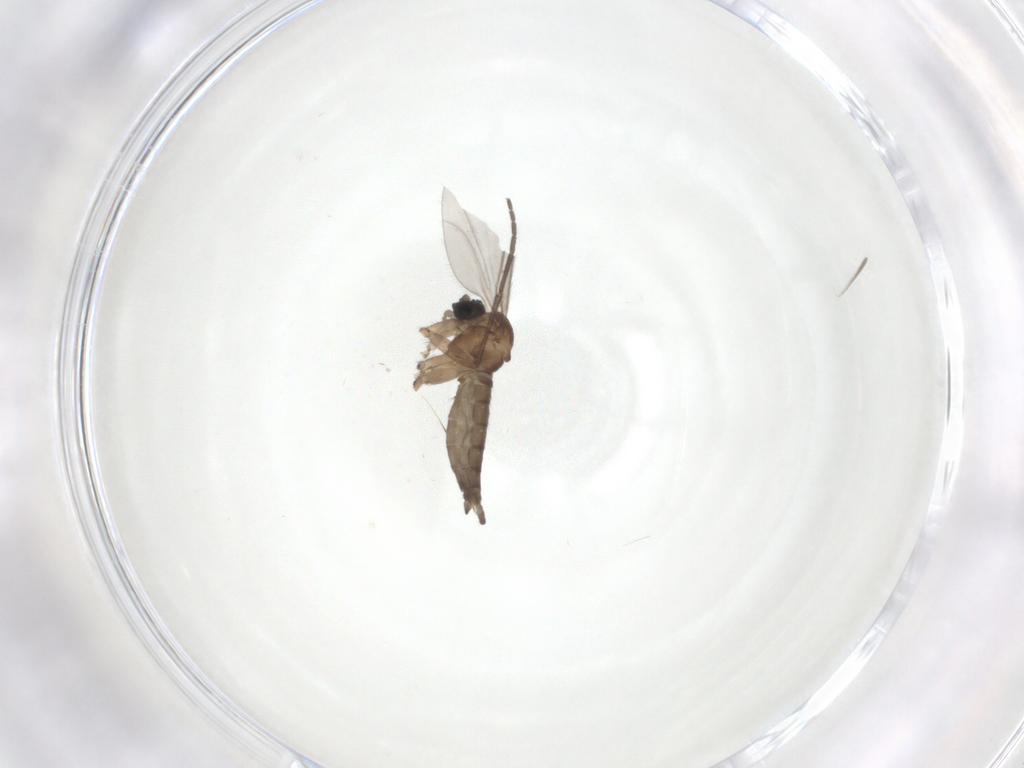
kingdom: Animalia
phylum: Arthropoda
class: Insecta
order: Diptera
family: Sciaridae
